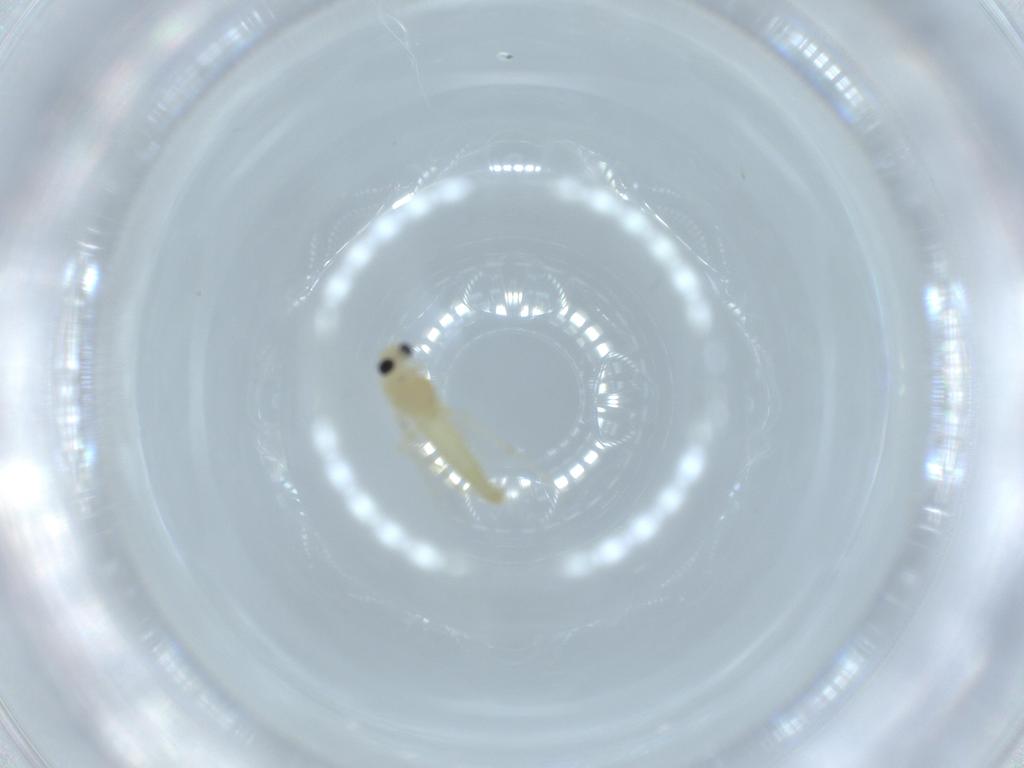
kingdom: Animalia
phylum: Arthropoda
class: Insecta
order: Diptera
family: Chironomidae
